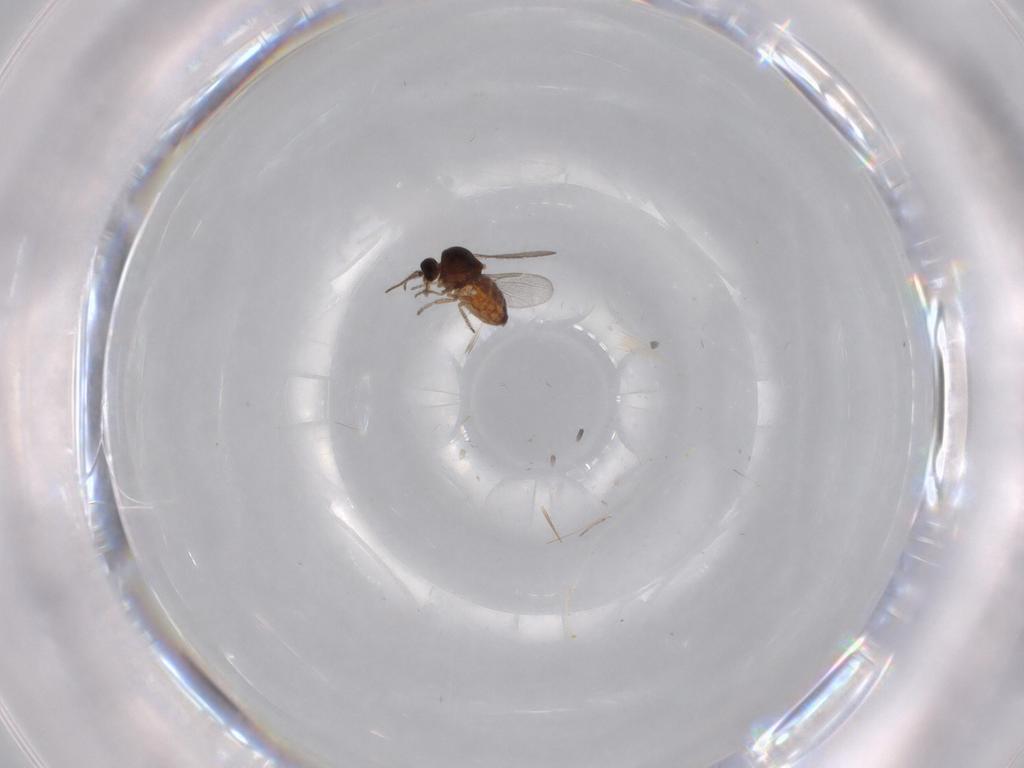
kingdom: Animalia
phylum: Arthropoda
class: Insecta
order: Diptera
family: Ceratopogonidae
